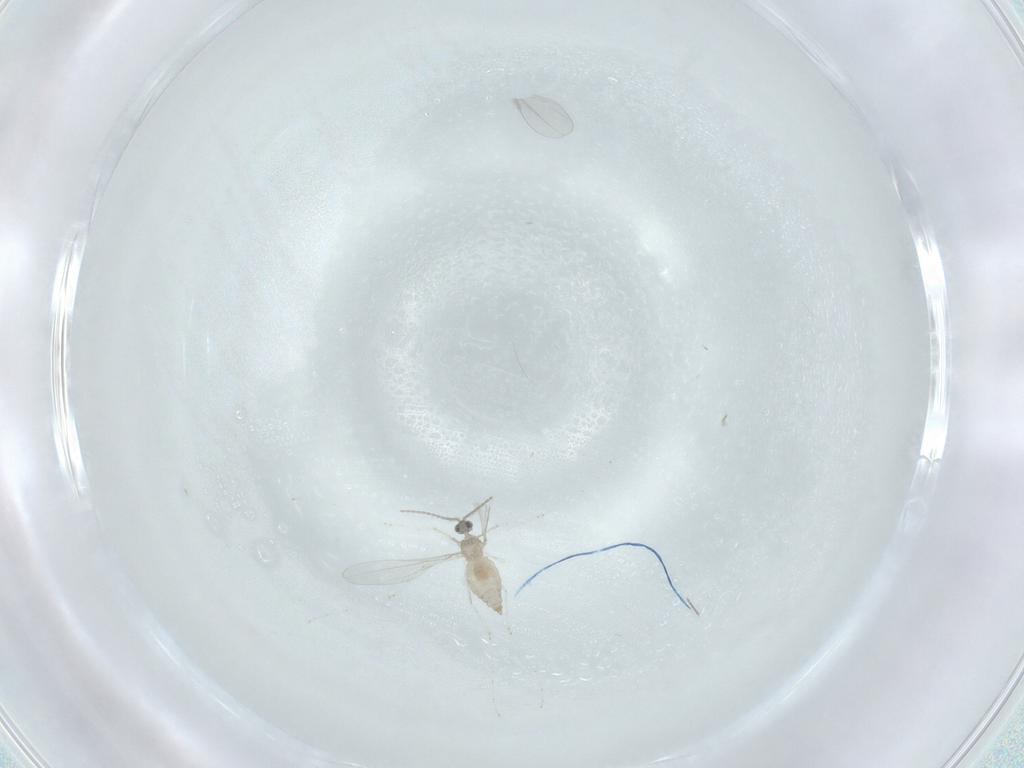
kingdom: Animalia
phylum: Arthropoda
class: Insecta
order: Diptera
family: Cecidomyiidae
